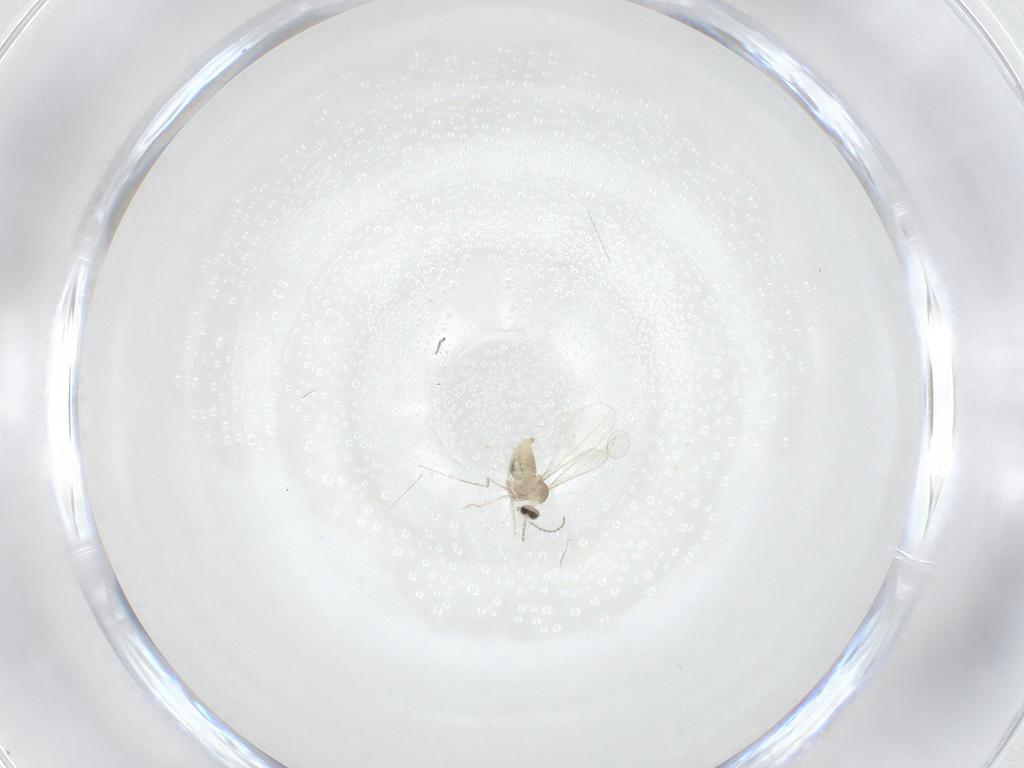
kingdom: Animalia
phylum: Arthropoda
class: Insecta
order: Diptera
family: Cecidomyiidae
